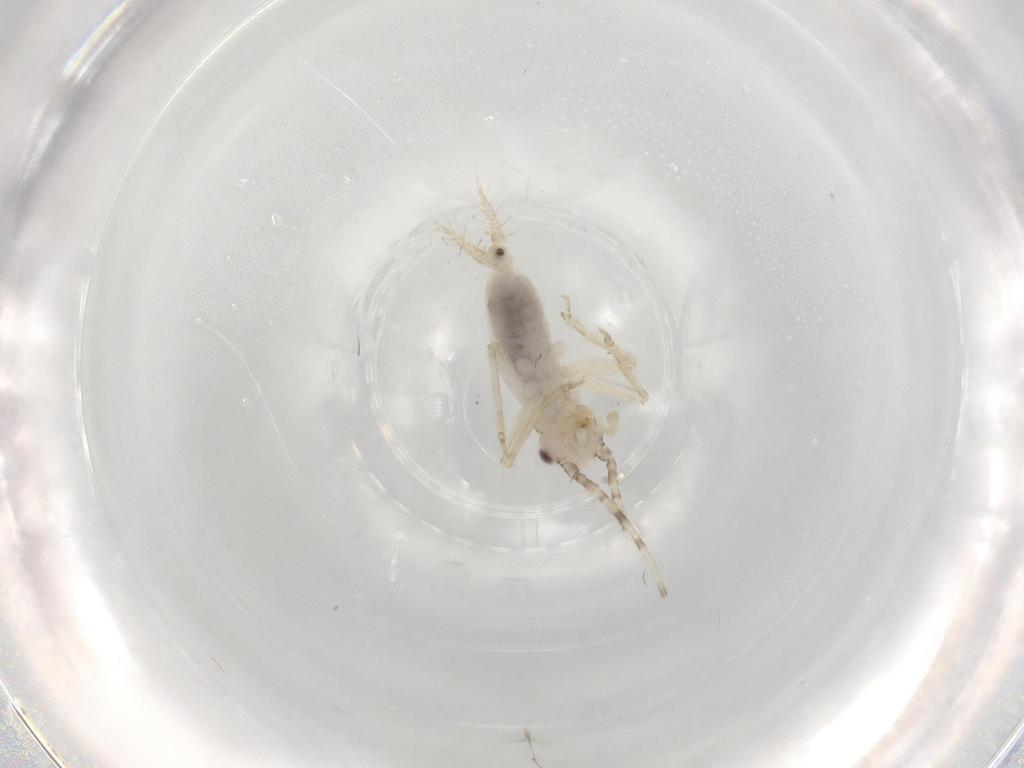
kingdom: Animalia
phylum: Arthropoda
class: Insecta
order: Orthoptera
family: Trigonidiidae
